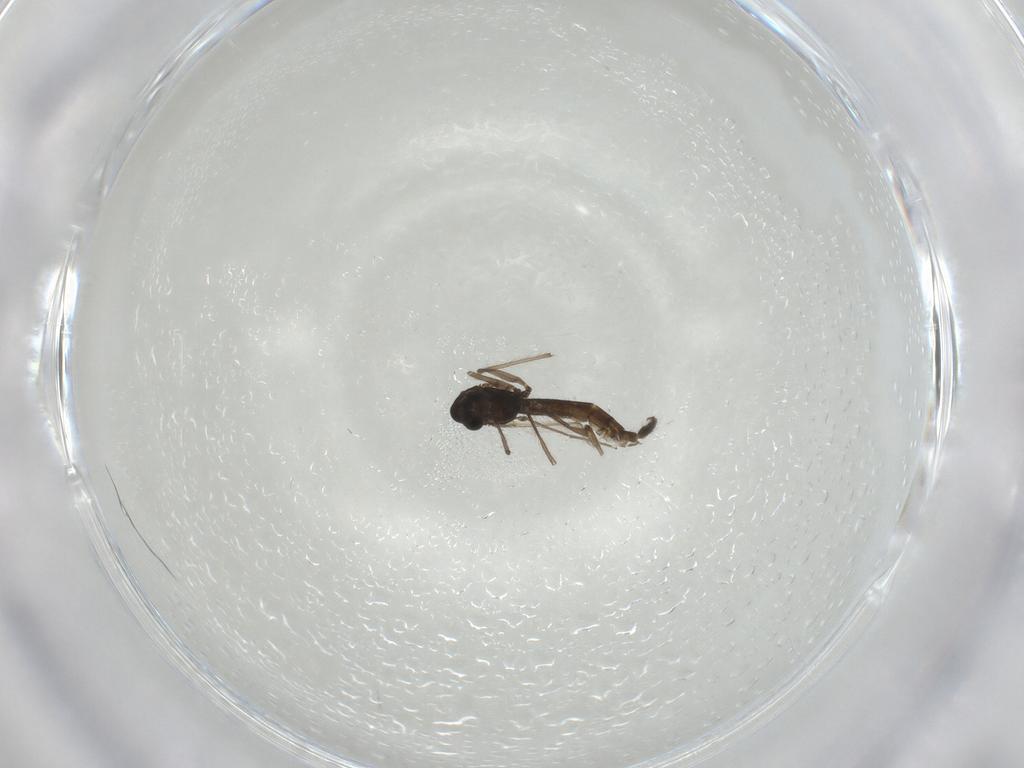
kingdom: Animalia
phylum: Arthropoda
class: Insecta
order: Diptera
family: Chironomidae
